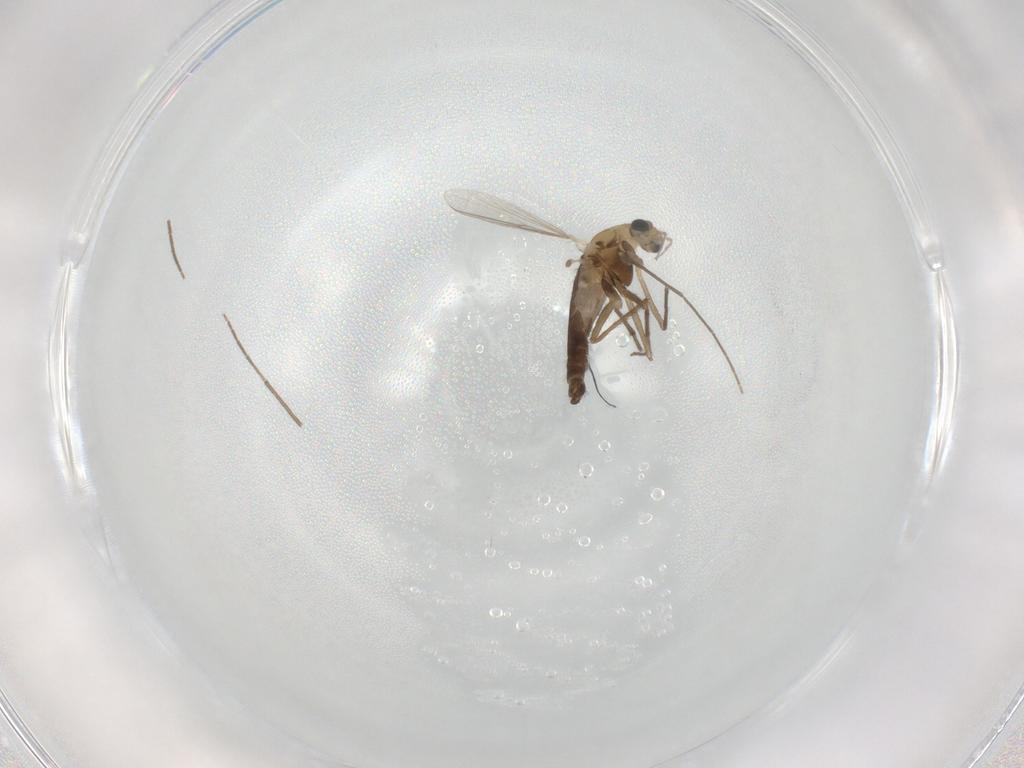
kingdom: Animalia
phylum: Arthropoda
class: Insecta
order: Diptera
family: Chironomidae
